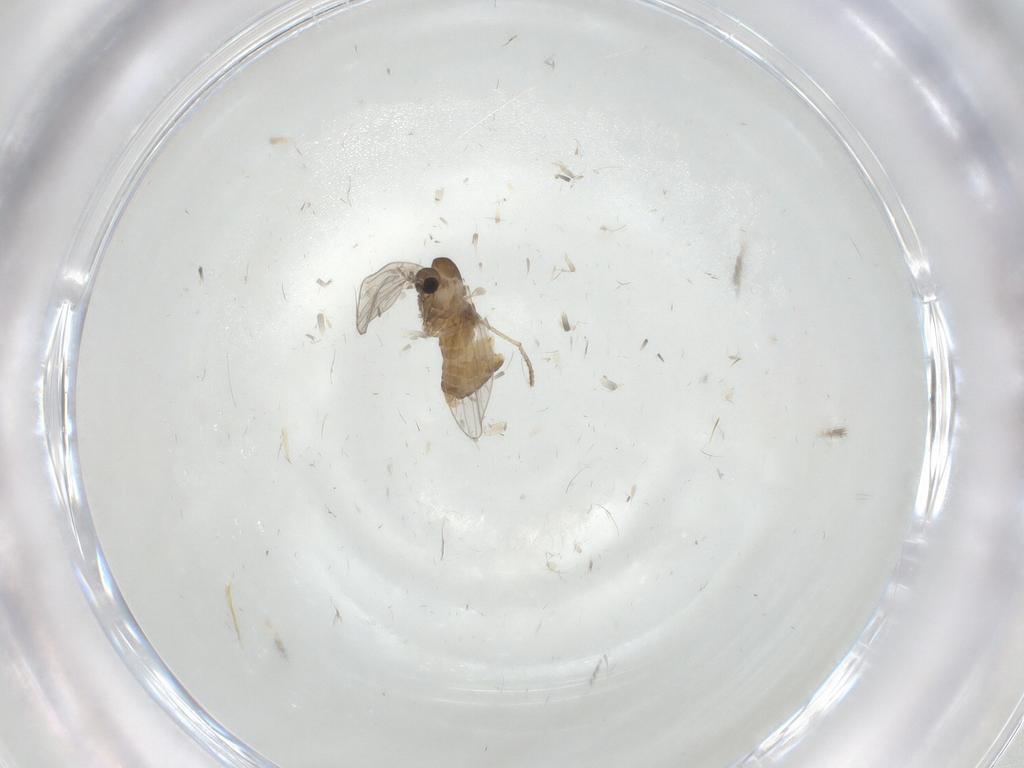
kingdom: Animalia
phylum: Arthropoda
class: Insecta
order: Diptera
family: Psychodidae
